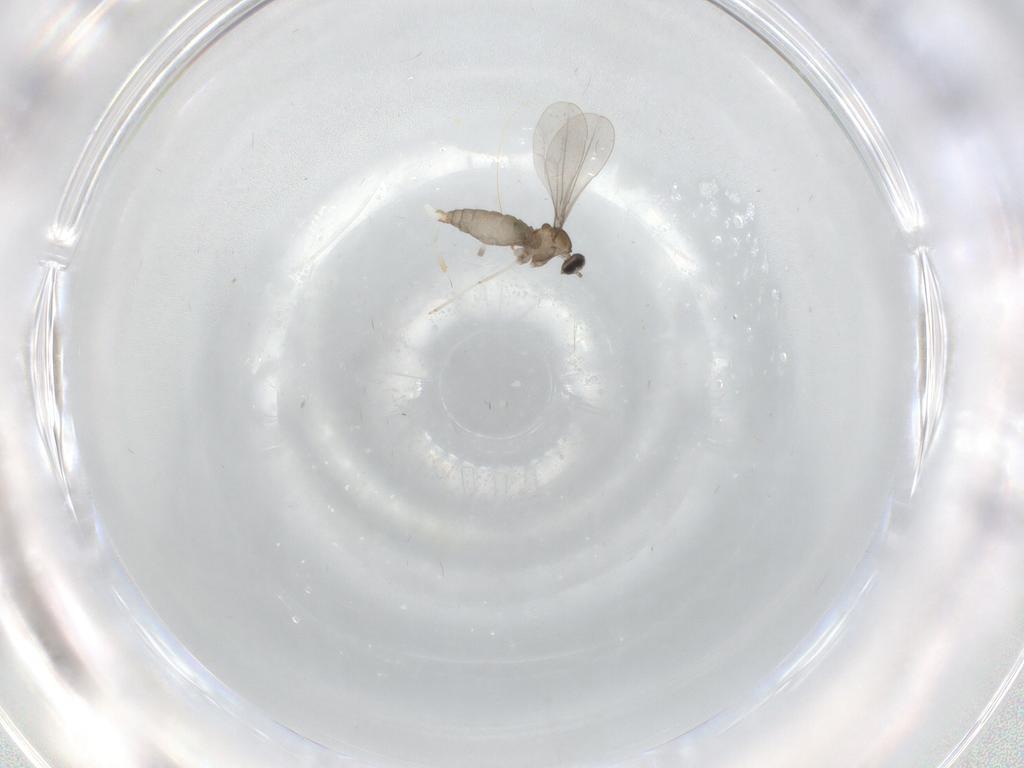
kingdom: Animalia
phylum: Arthropoda
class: Insecta
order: Diptera
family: Cecidomyiidae
